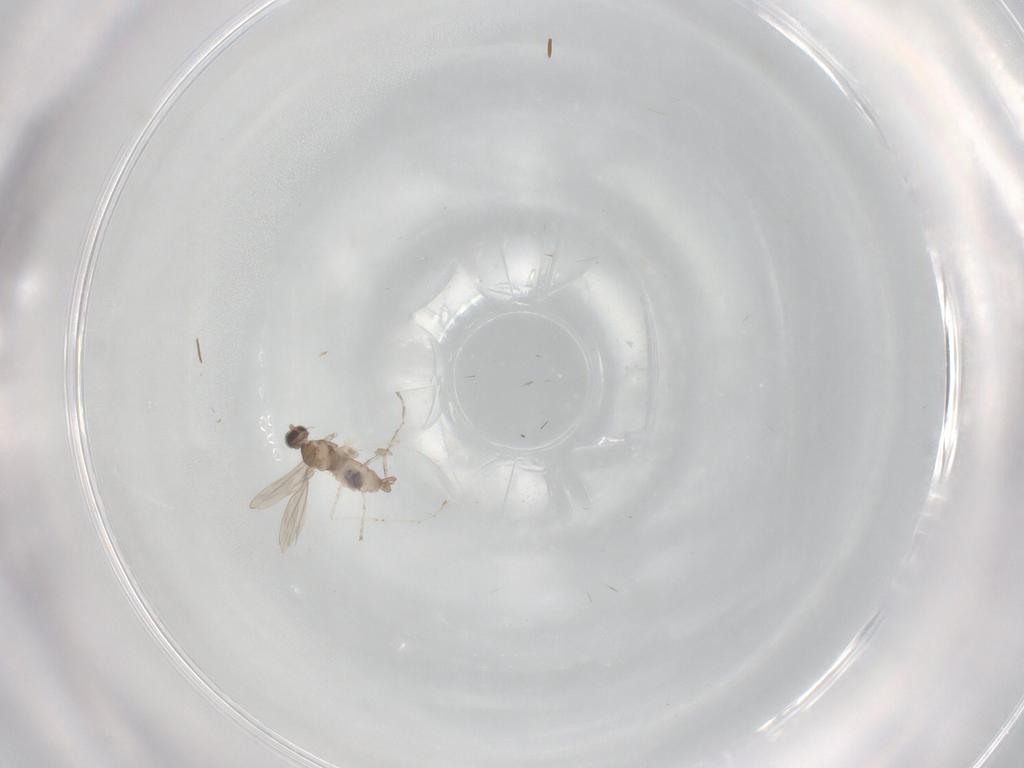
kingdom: Animalia
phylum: Arthropoda
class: Insecta
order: Diptera
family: Cecidomyiidae
